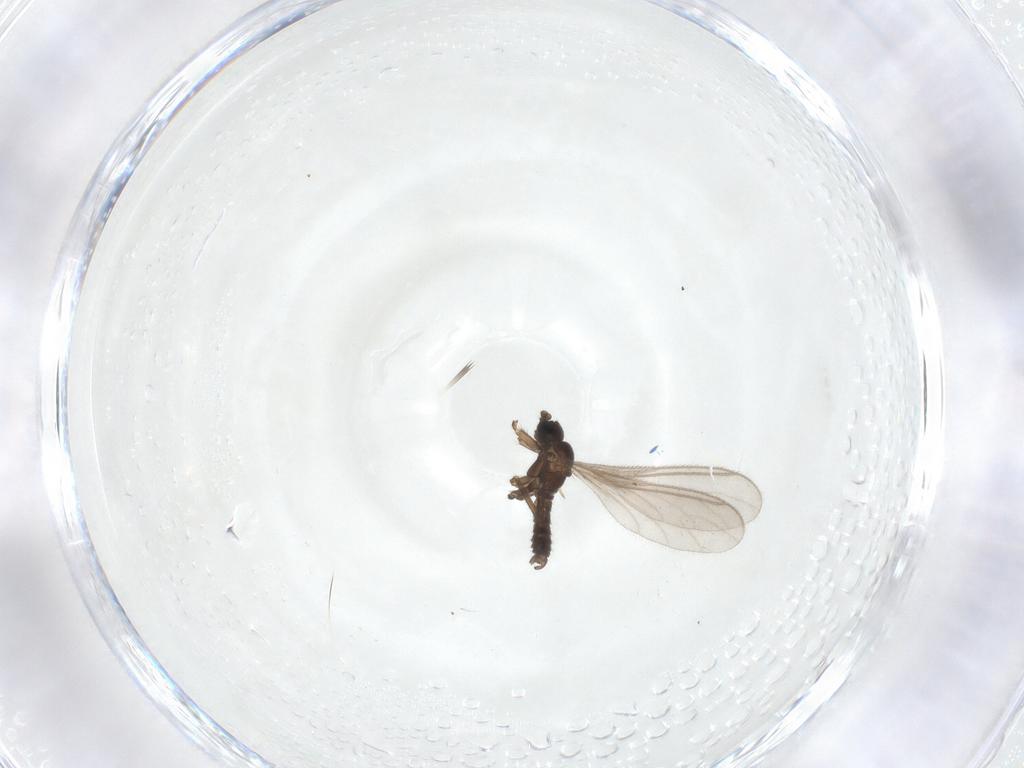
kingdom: Animalia
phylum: Arthropoda
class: Insecta
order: Diptera
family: Sciaridae
